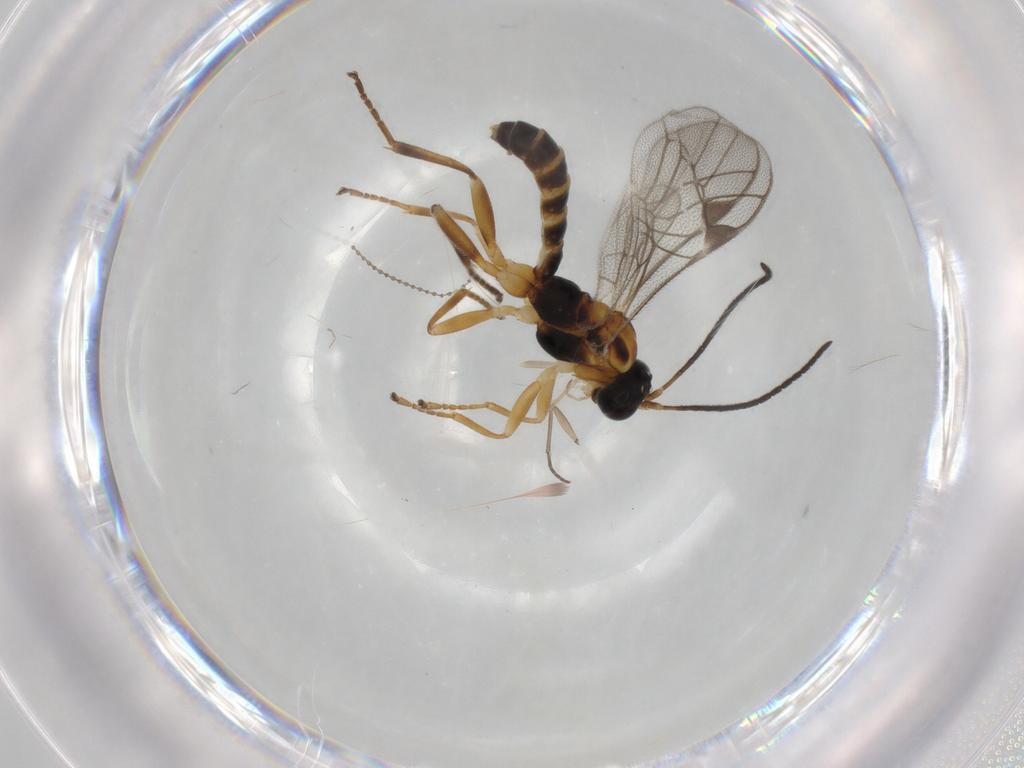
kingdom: Animalia
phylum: Arthropoda
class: Insecta
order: Hymenoptera
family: Ichneumonidae
